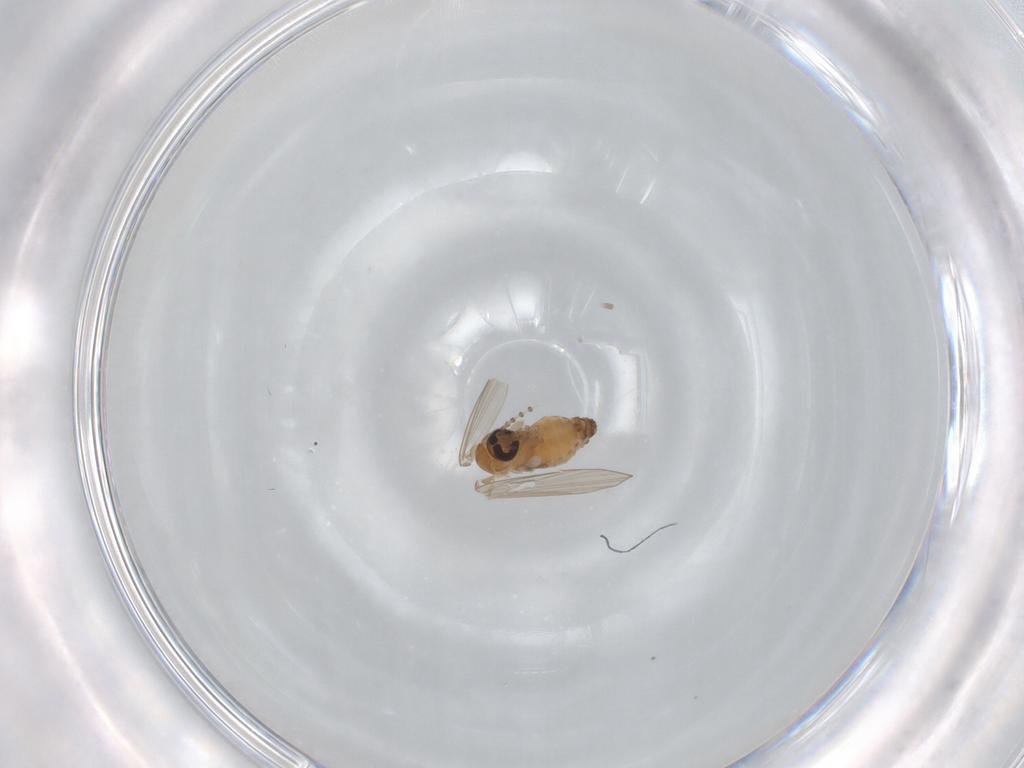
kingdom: Animalia
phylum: Arthropoda
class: Insecta
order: Diptera
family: Psychodidae
